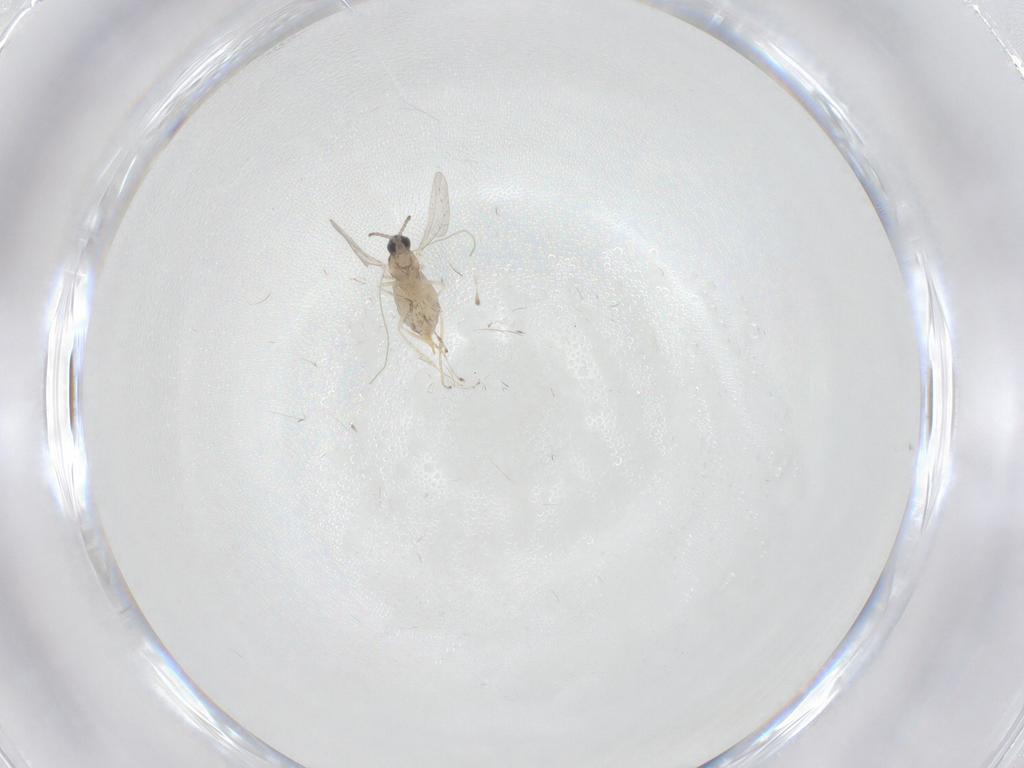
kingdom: Animalia
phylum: Arthropoda
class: Insecta
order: Diptera
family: Cecidomyiidae
